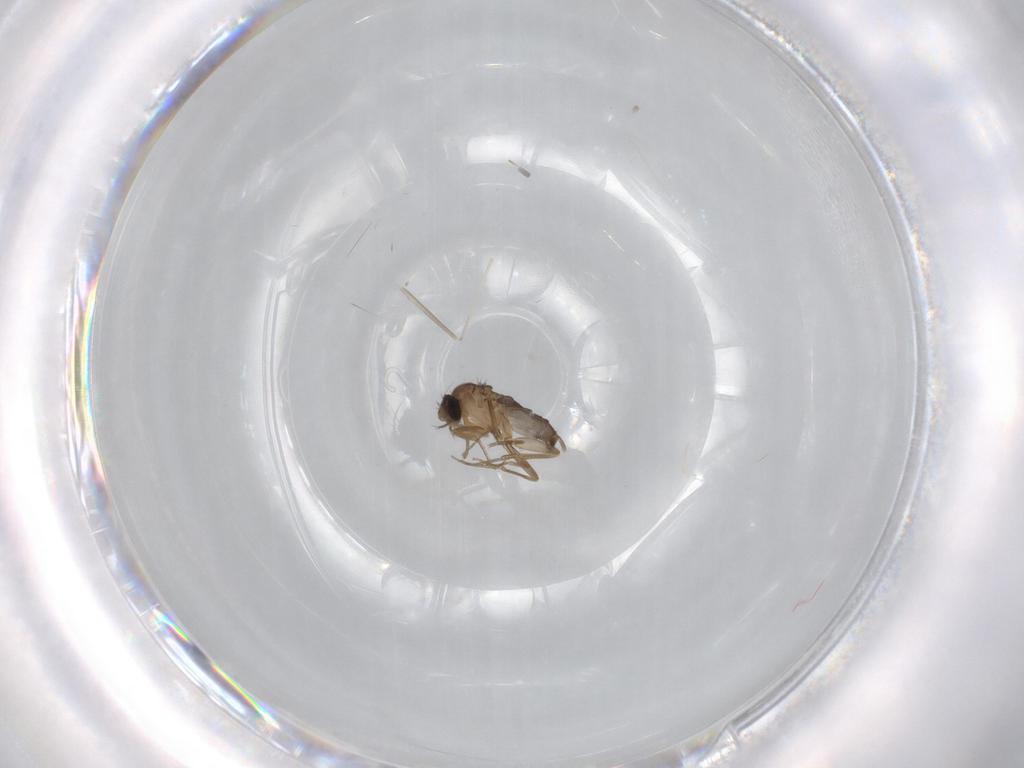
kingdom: Animalia
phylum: Arthropoda
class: Insecta
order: Diptera
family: Phoridae
